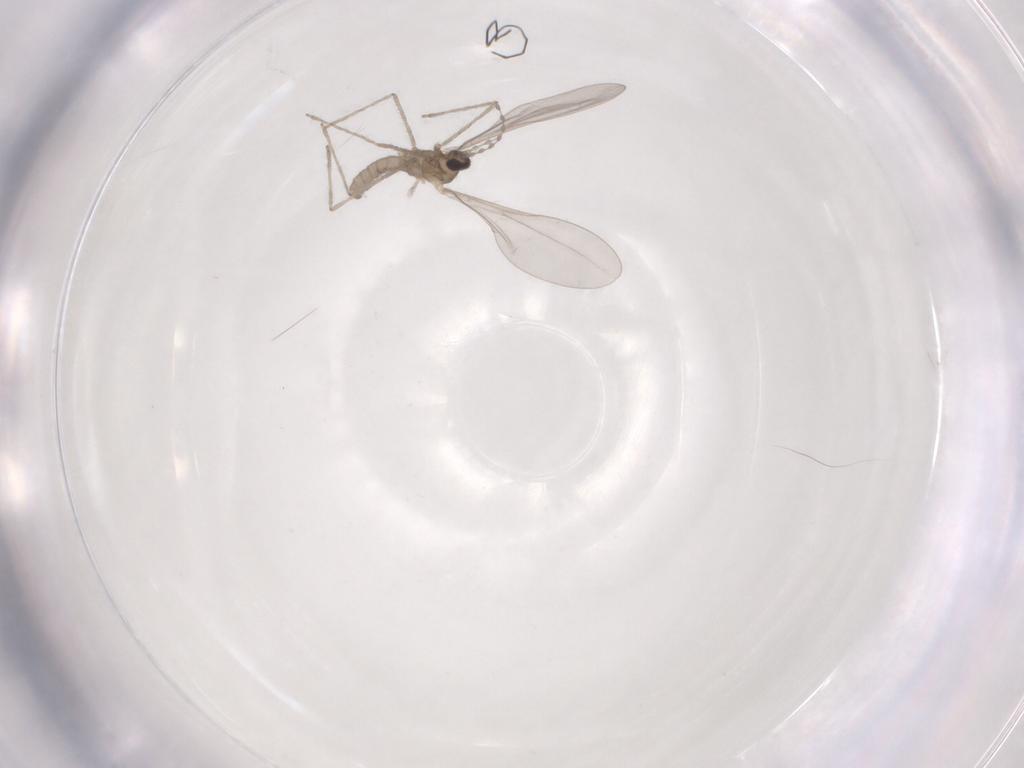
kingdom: Animalia
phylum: Arthropoda
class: Insecta
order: Diptera
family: Cecidomyiidae
